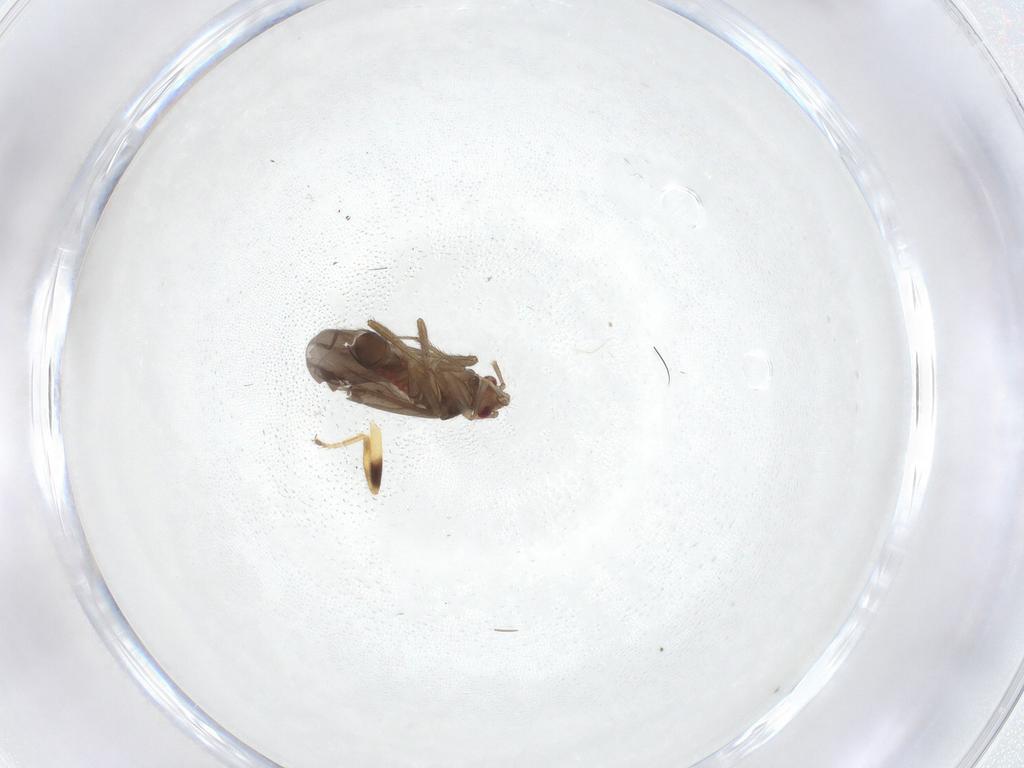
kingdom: Animalia
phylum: Arthropoda
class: Insecta
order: Hemiptera
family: Ceratocombidae
